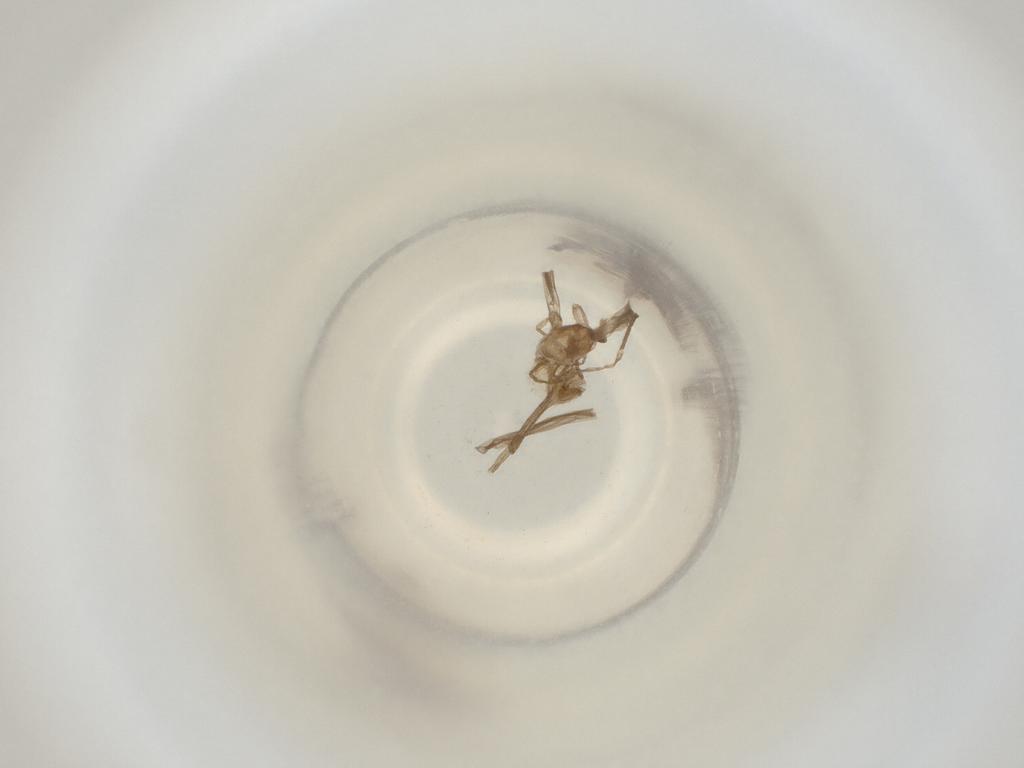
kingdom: Animalia
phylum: Arthropoda
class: Insecta
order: Diptera
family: Cecidomyiidae
